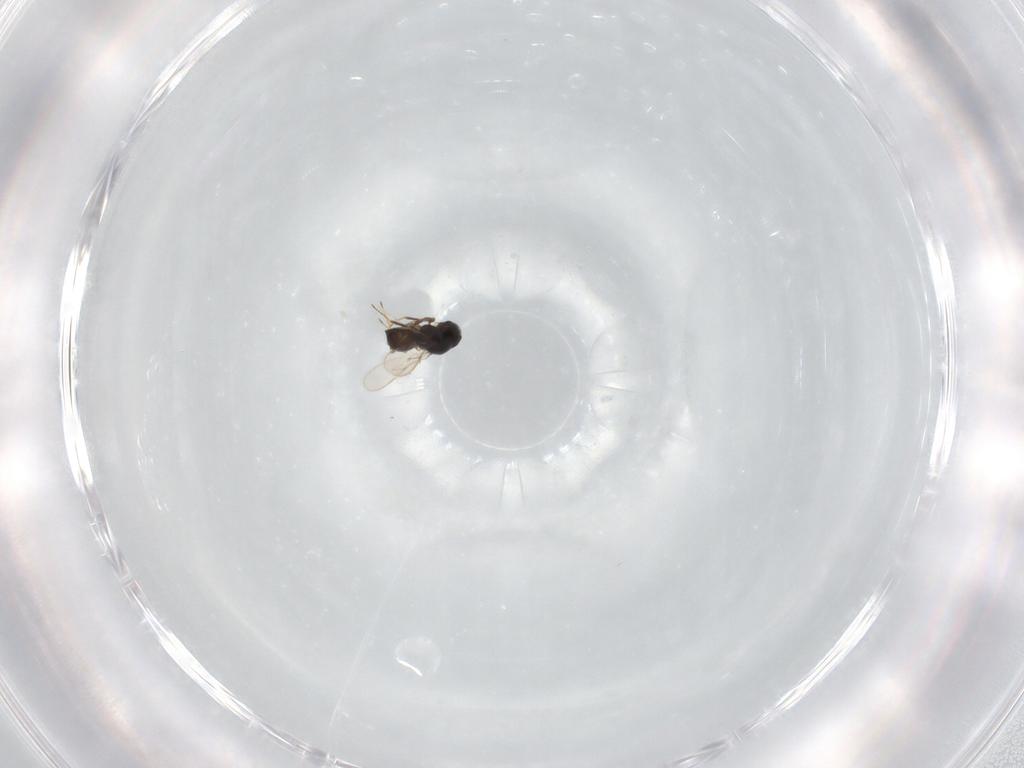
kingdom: Animalia
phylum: Arthropoda
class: Insecta
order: Hymenoptera
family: Scelionidae
